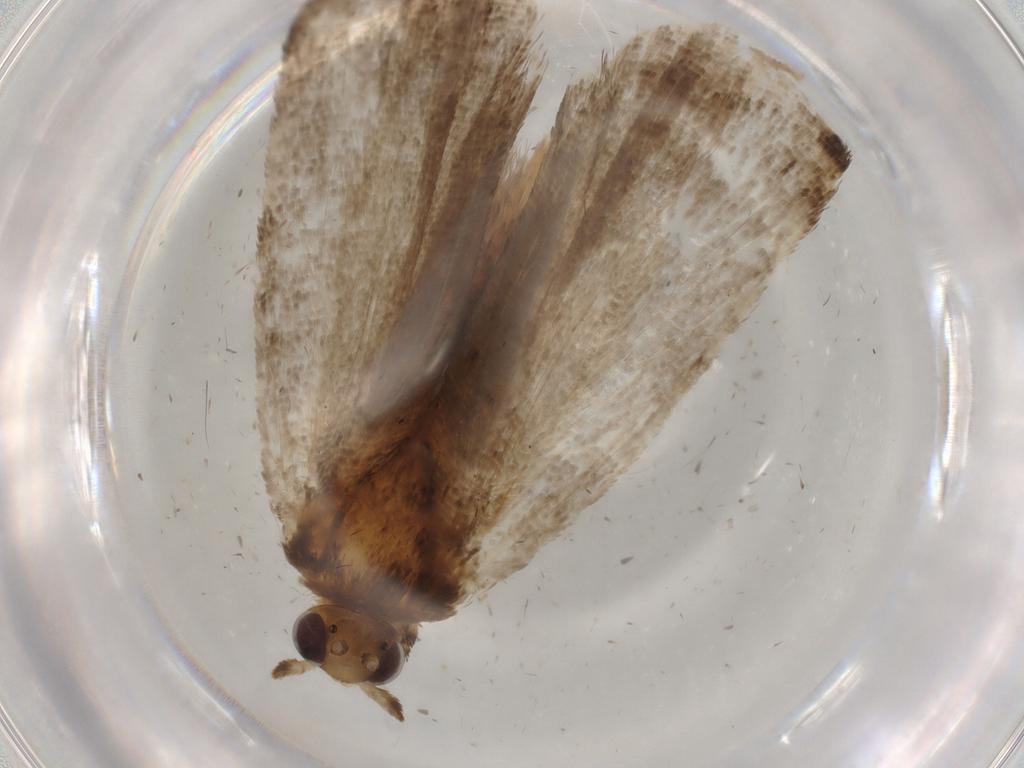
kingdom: Animalia
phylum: Arthropoda
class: Insecta
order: Lepidoptera
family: Tortricidae
